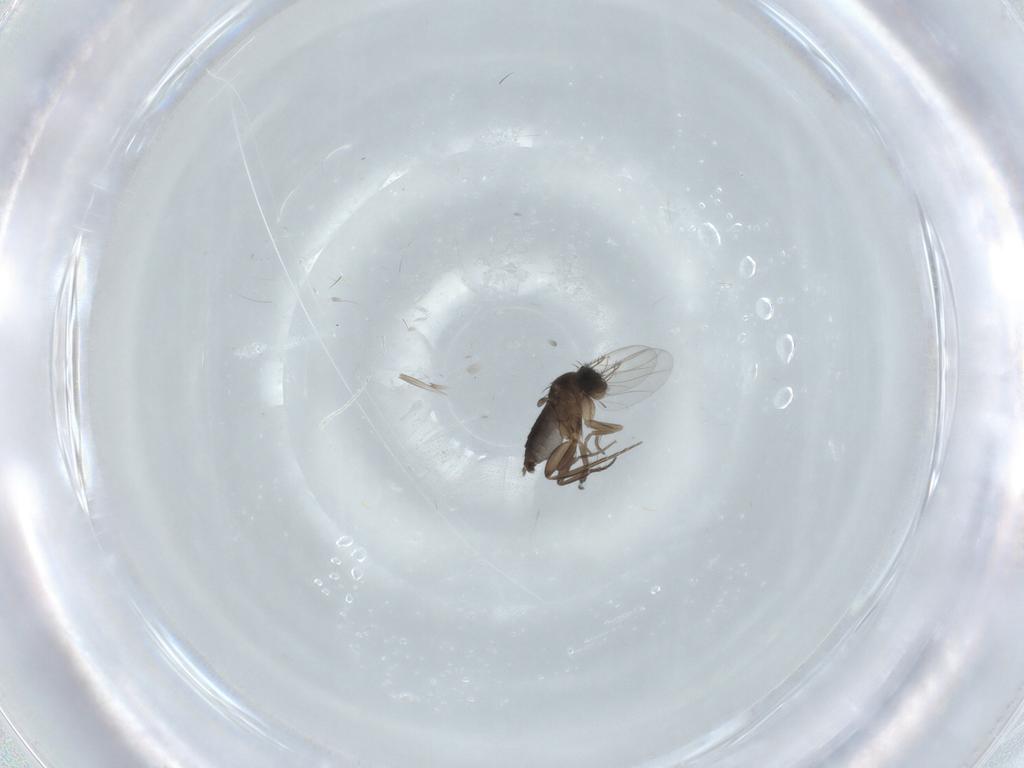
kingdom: Animalia
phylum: Arthropoda
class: Insecta
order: Diptera
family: Phoridae
